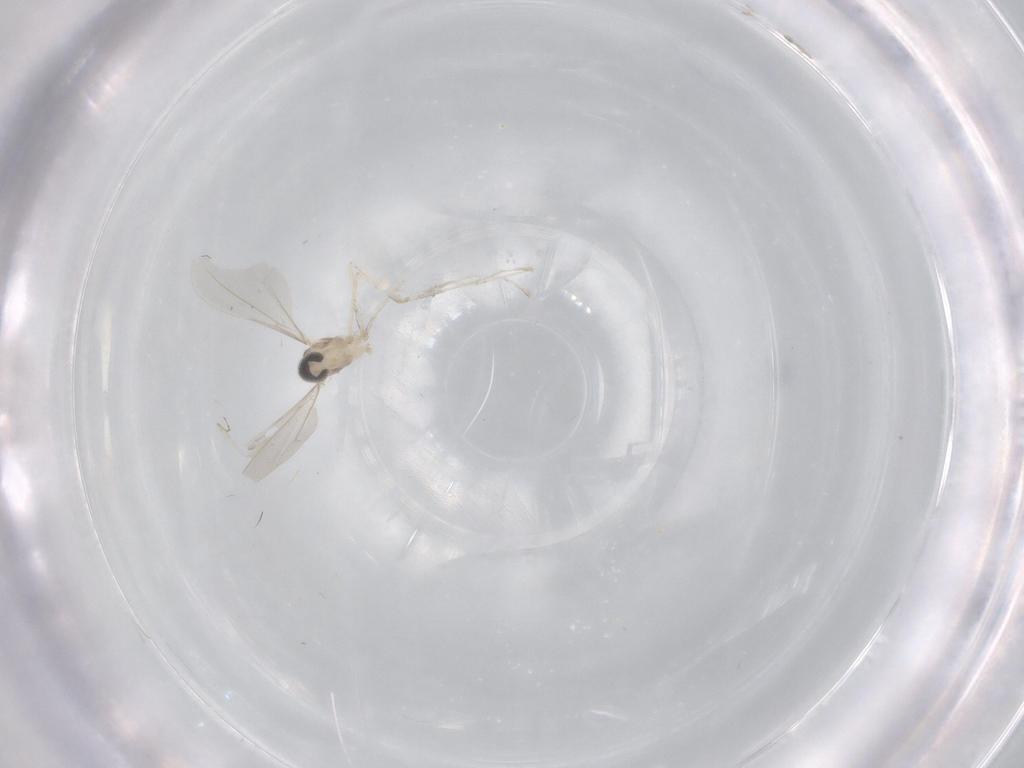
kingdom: Animalia
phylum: Arthropoda
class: Insecta
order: Diptera
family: Cecidomyiidae
